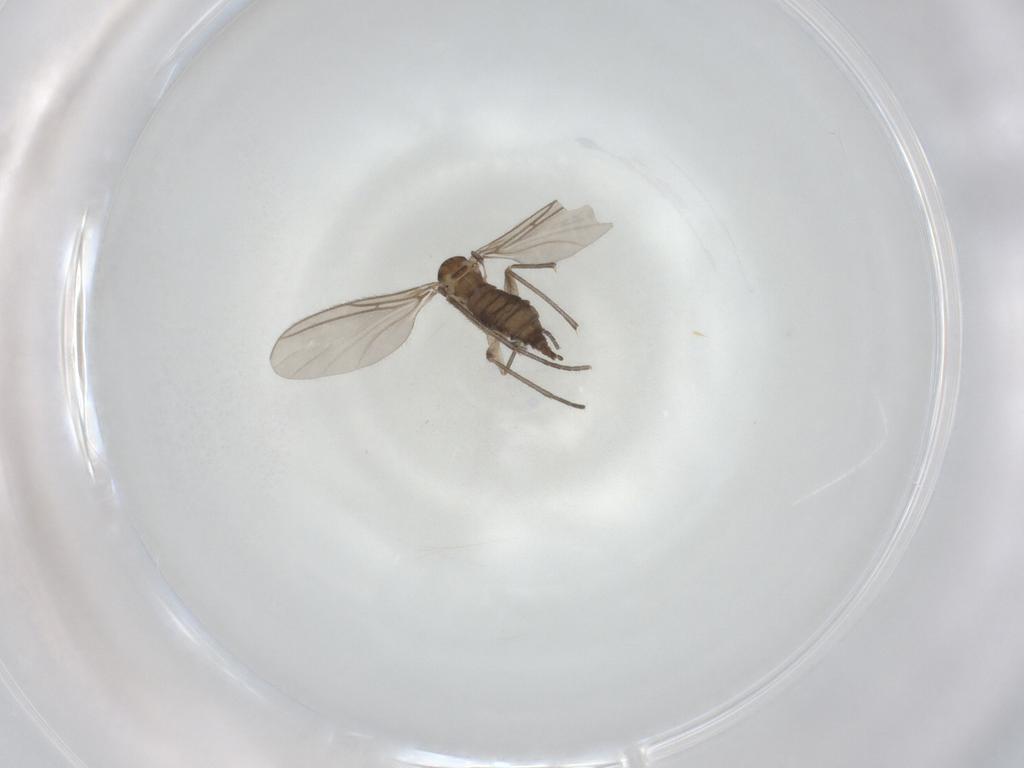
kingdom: Animalia
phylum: Arthropoda
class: Insecta
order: Diptera
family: Sciaridae
